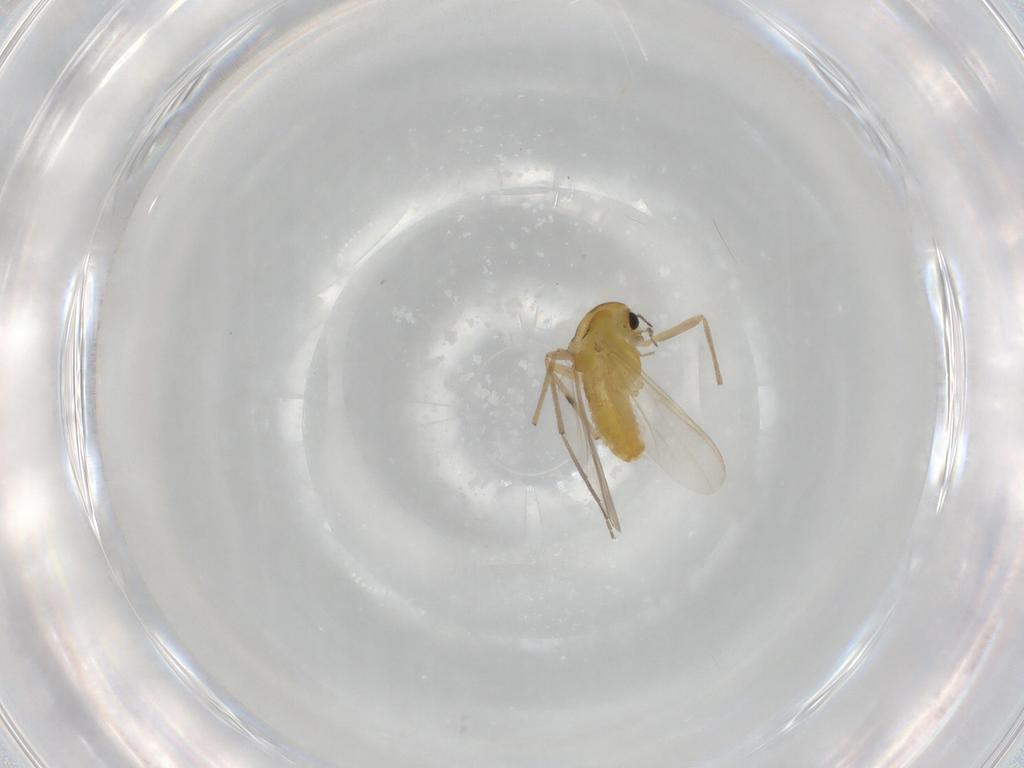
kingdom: Animalia
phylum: Arthropoda
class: Insecta
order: Diptera
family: Chironomidae
